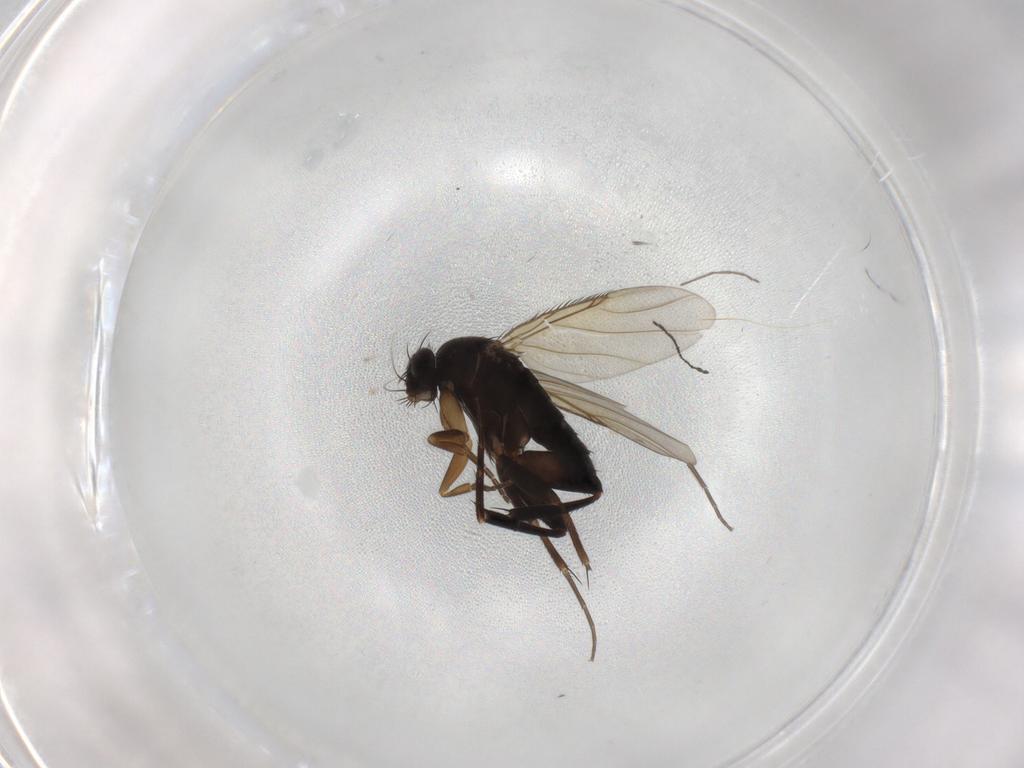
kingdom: Animalia
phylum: Arthropoda
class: Insecta
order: Diptera
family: Phoridae
